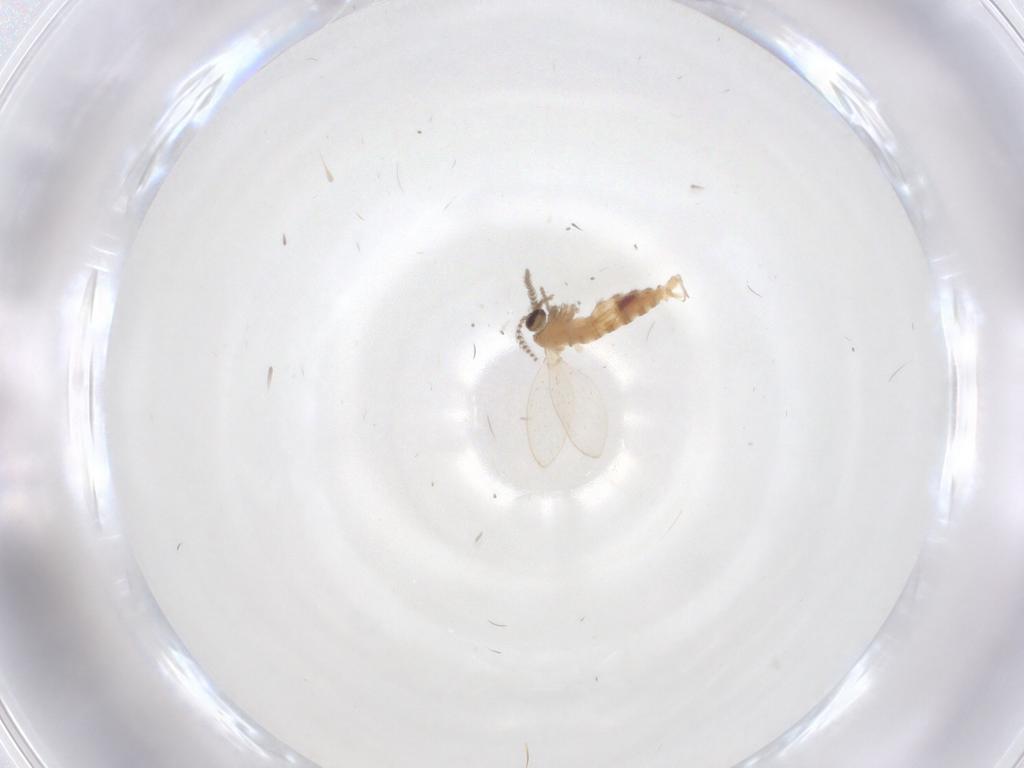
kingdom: Animalia
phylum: Arthropoda
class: Insecta
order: Diptera
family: Psychodidae
